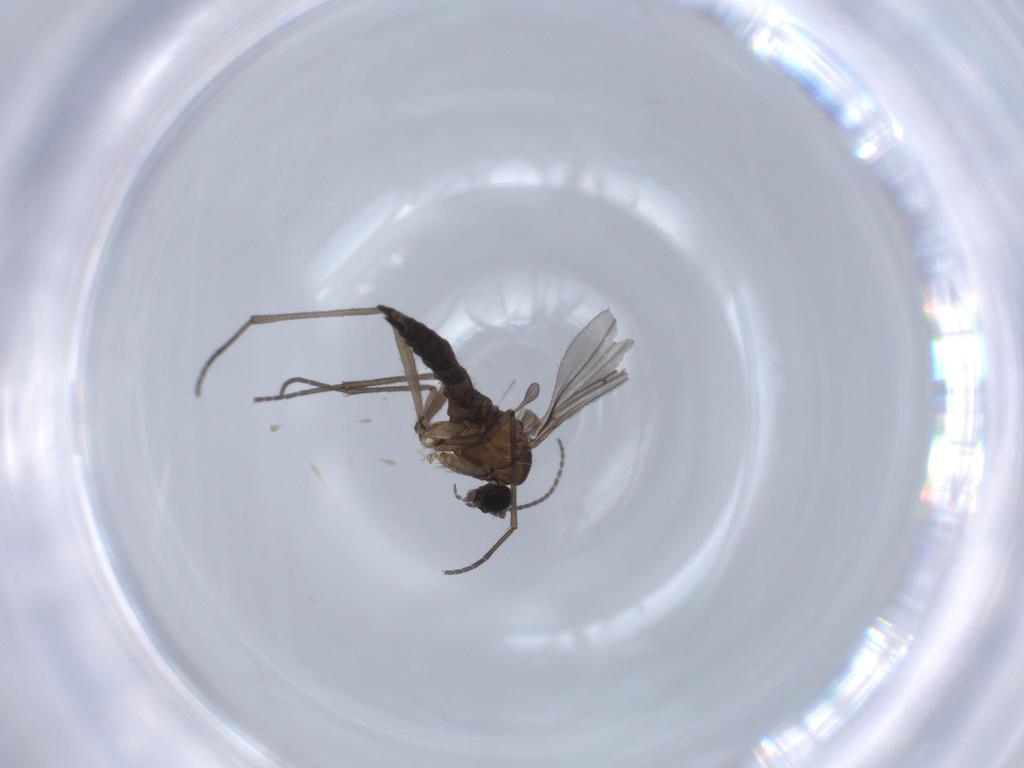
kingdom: Animalia
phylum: Arthropoda
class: Insecta
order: Diptera
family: Sciaridae
